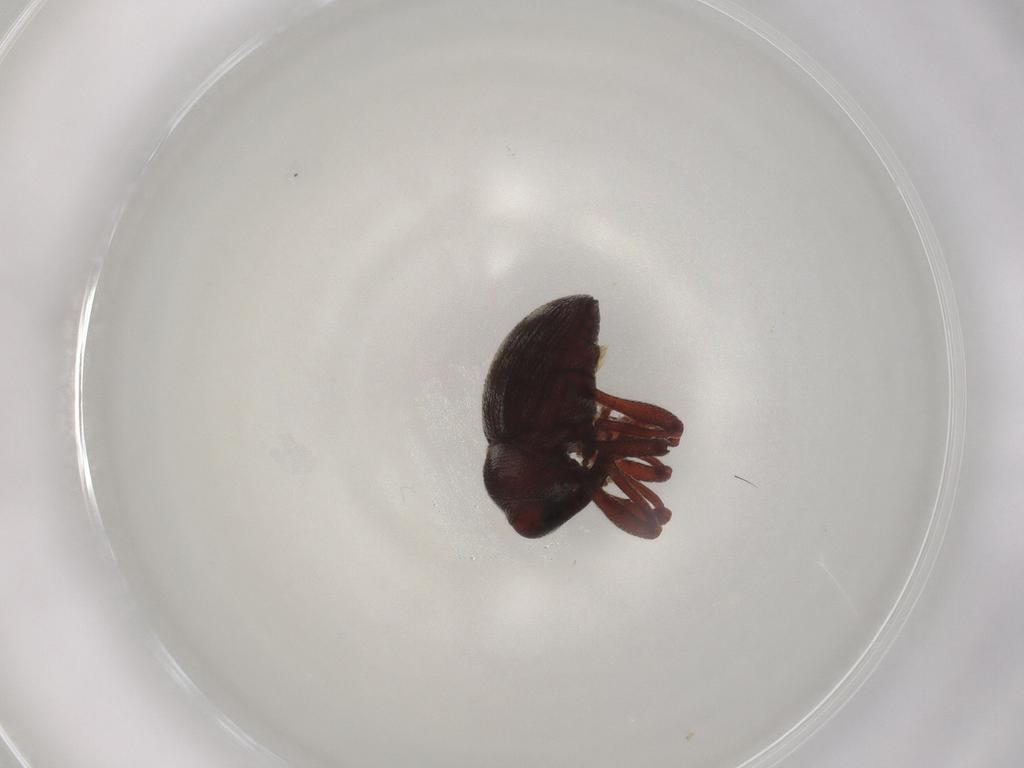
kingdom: Animalia
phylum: Arthropoda
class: Insecta
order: Coleoptera
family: Curculionidae
